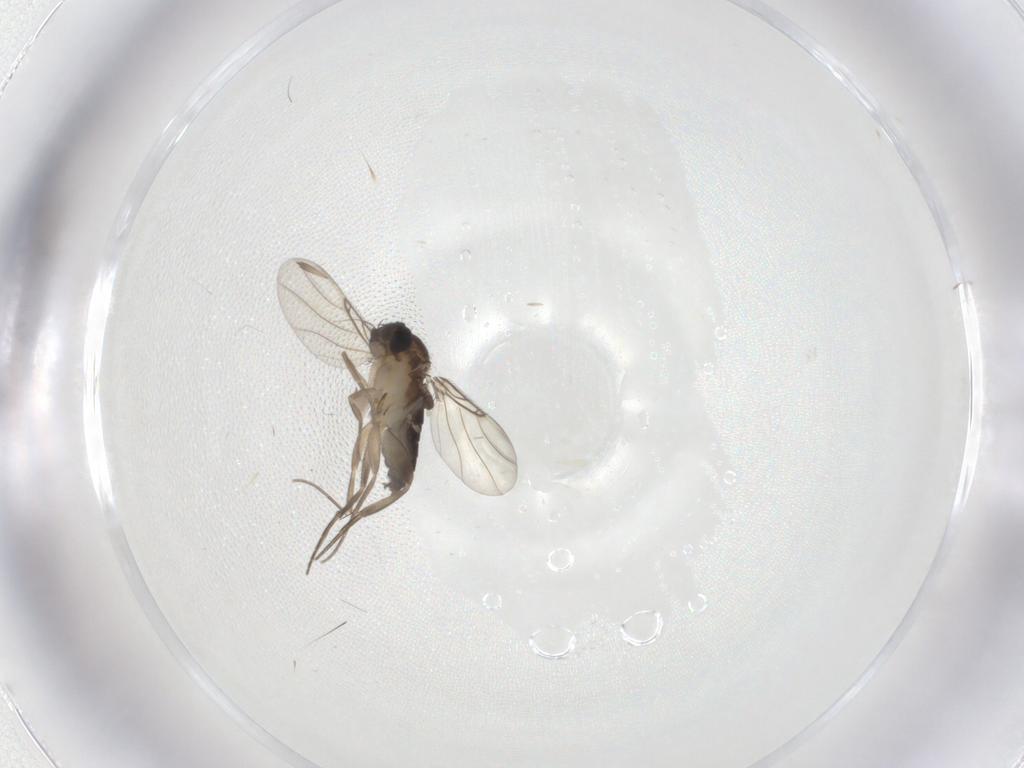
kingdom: Animalia
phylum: Arthropoda
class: Insecta
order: Diptera
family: Phoridae
